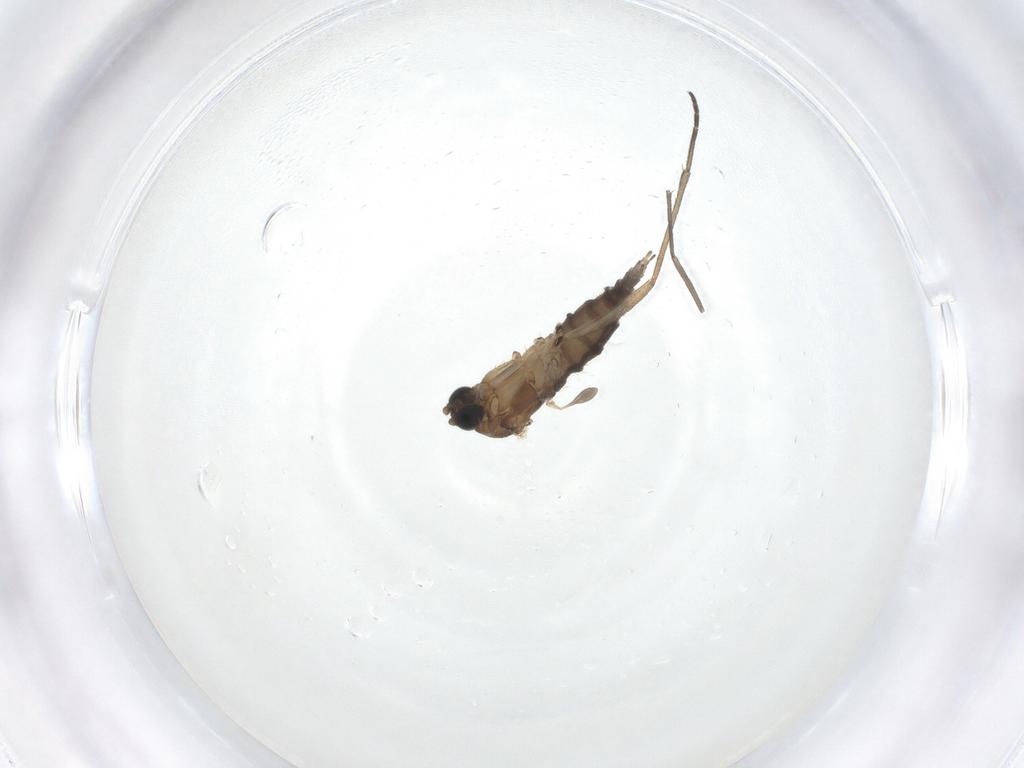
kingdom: Animalia
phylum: Arthropoda
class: Insecta
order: Diptera
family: Sciaridae
